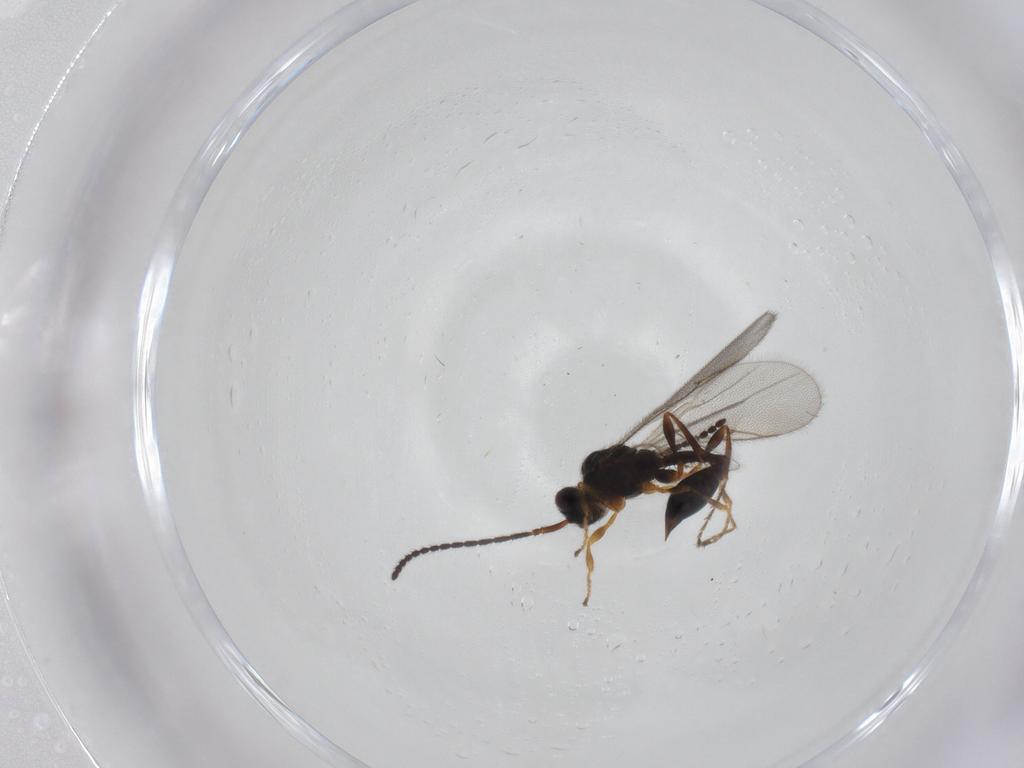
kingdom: Animalia
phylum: Arthropoda
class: Insecta
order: Hymenoptera
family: Diapriidae
